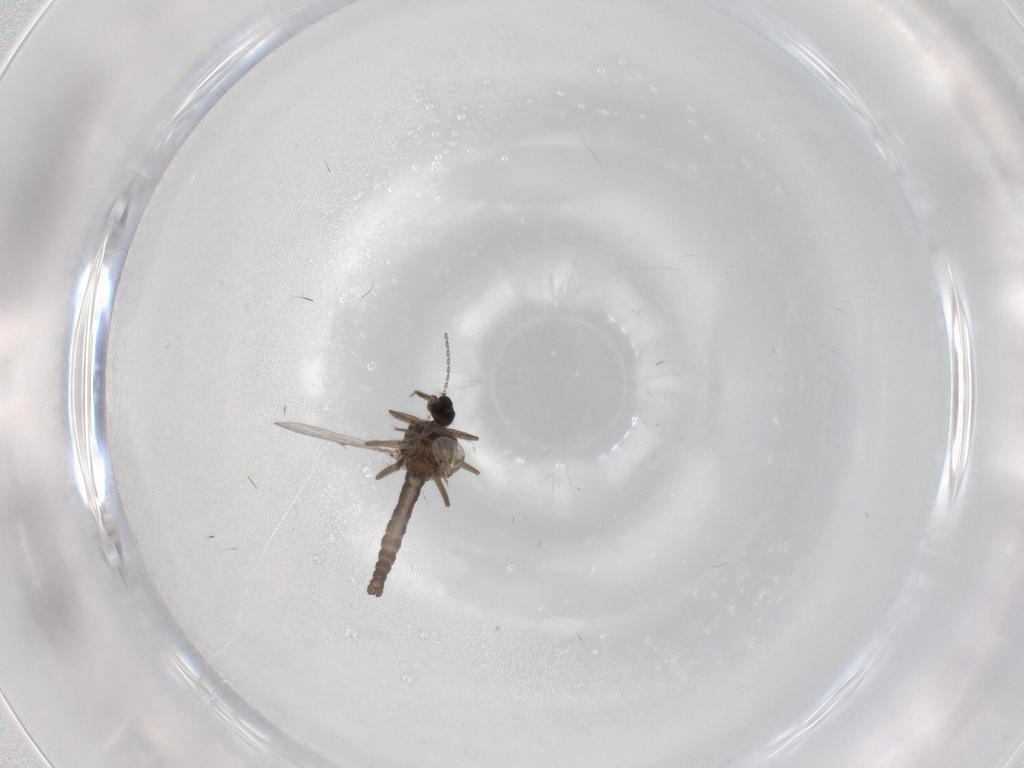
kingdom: Animalia
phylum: Arthropoda
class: Insecta
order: Diptera
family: Ceratopogonidae
